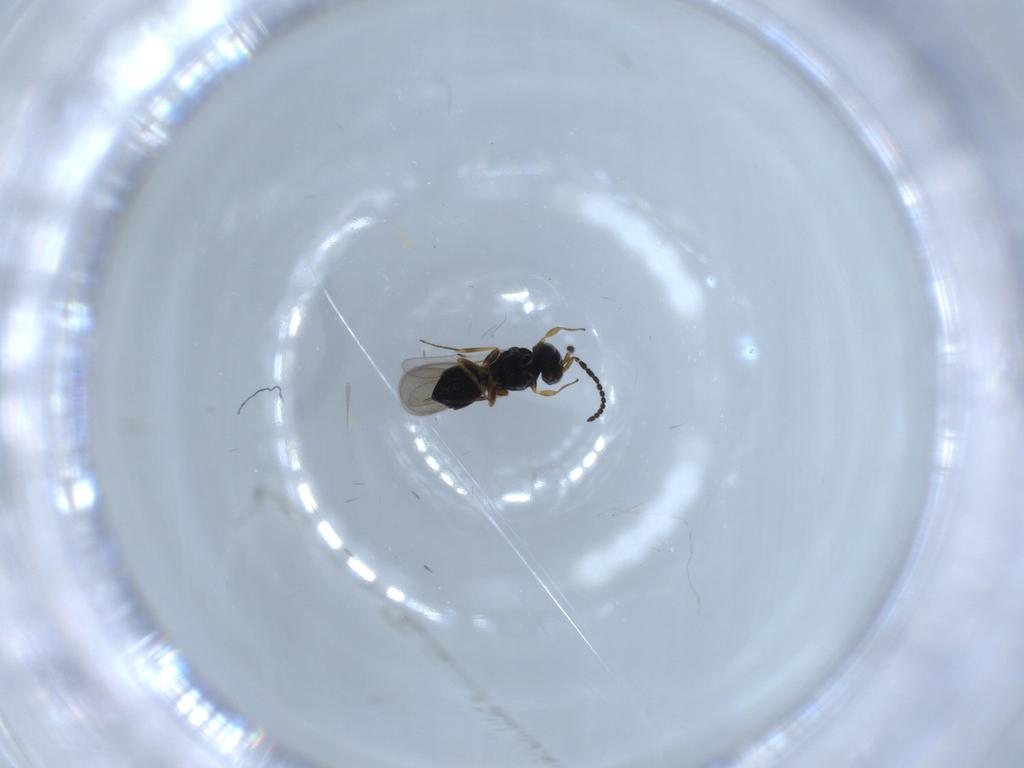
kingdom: Animalia
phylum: Arthropoda
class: Insecta
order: Hymenoptera
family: Scelionidae
